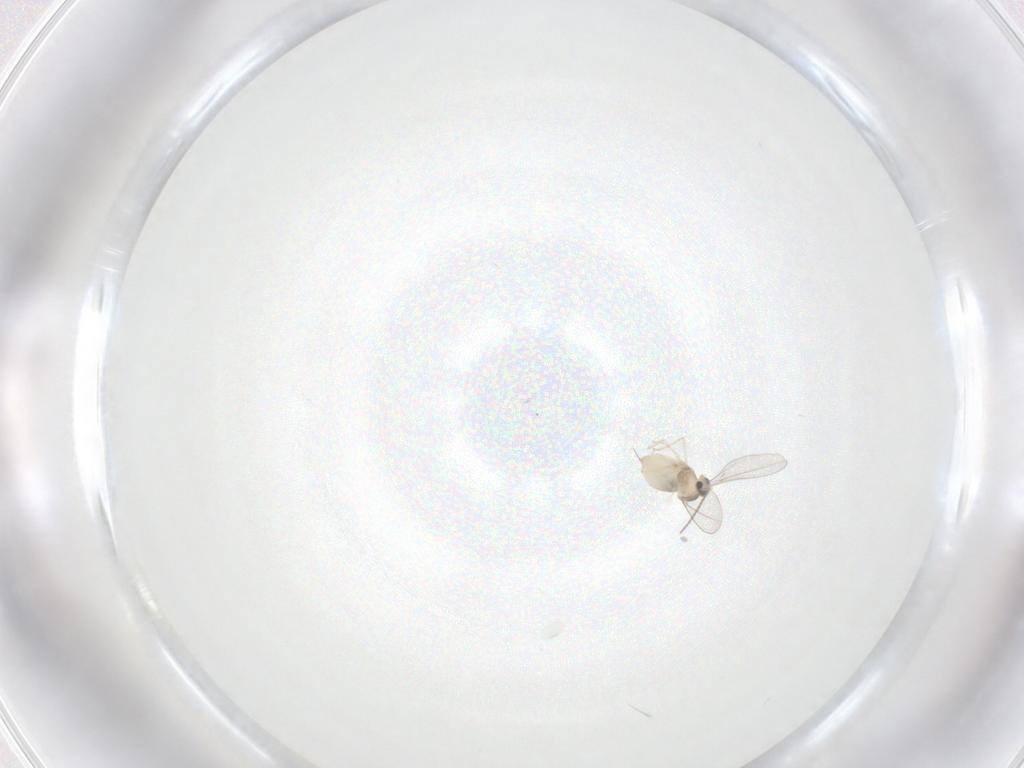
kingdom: Animalia
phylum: Arthropoda
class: Insecta
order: Diptera
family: Cecidomyiidae
